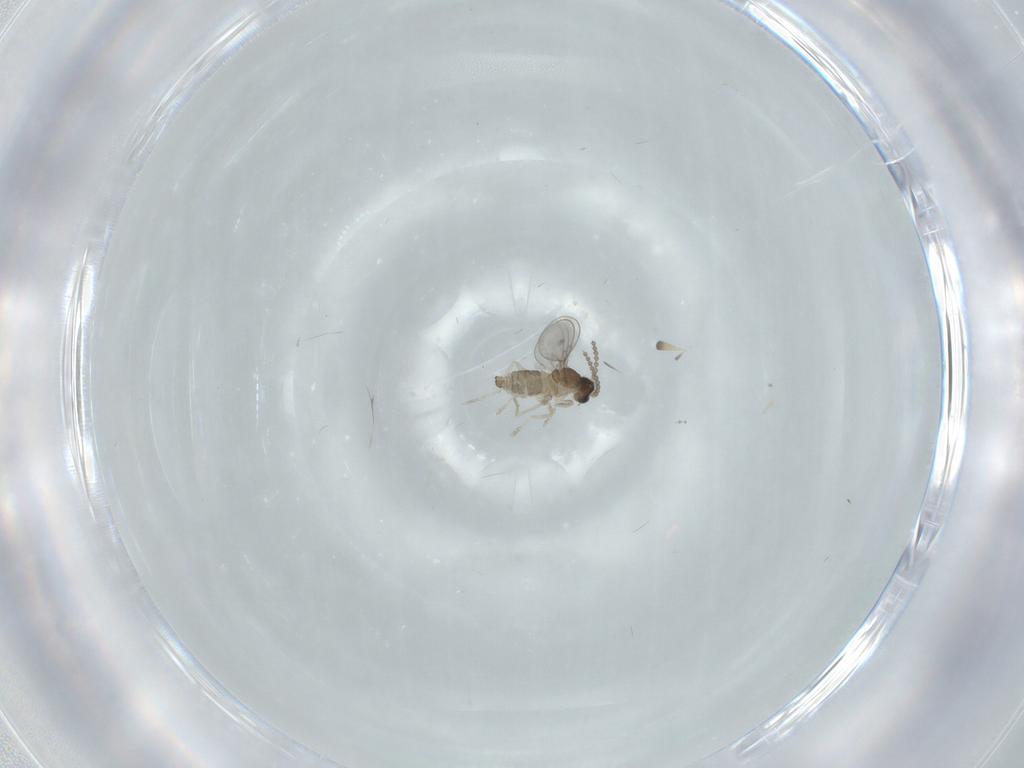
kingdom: Animalia
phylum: Arthropoda
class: Insecta
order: Diptera
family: Cecidomyiidae
